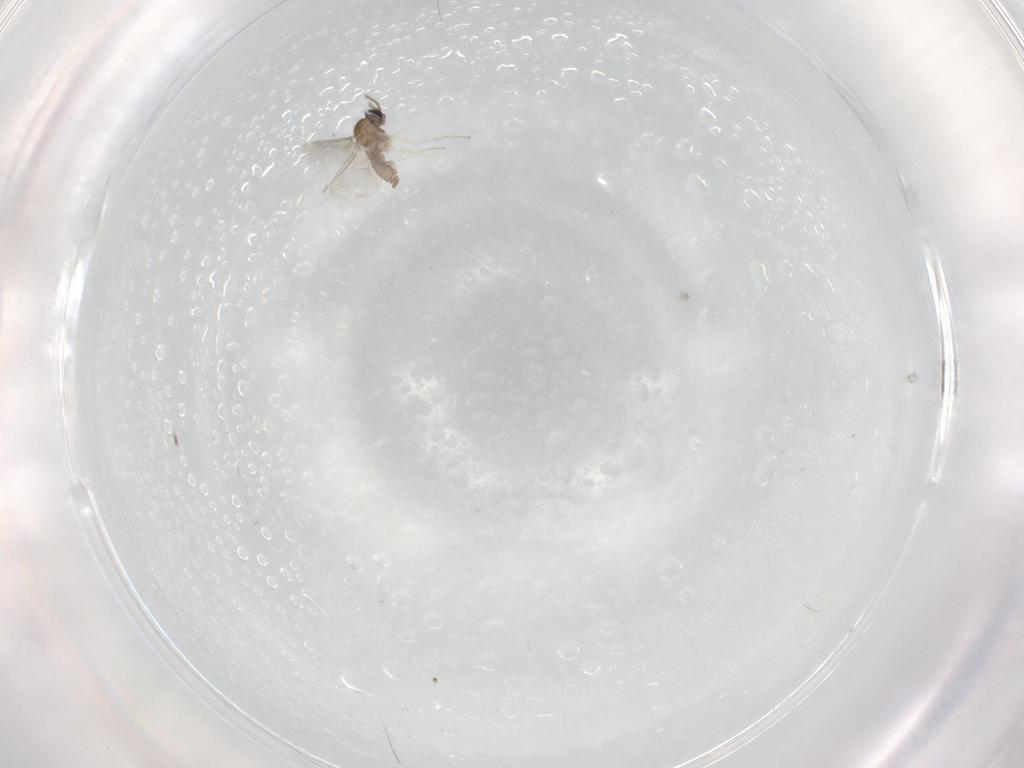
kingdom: Animalia
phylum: Arthropoda
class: Insecta
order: Diptera
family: Cecidomyiidae
